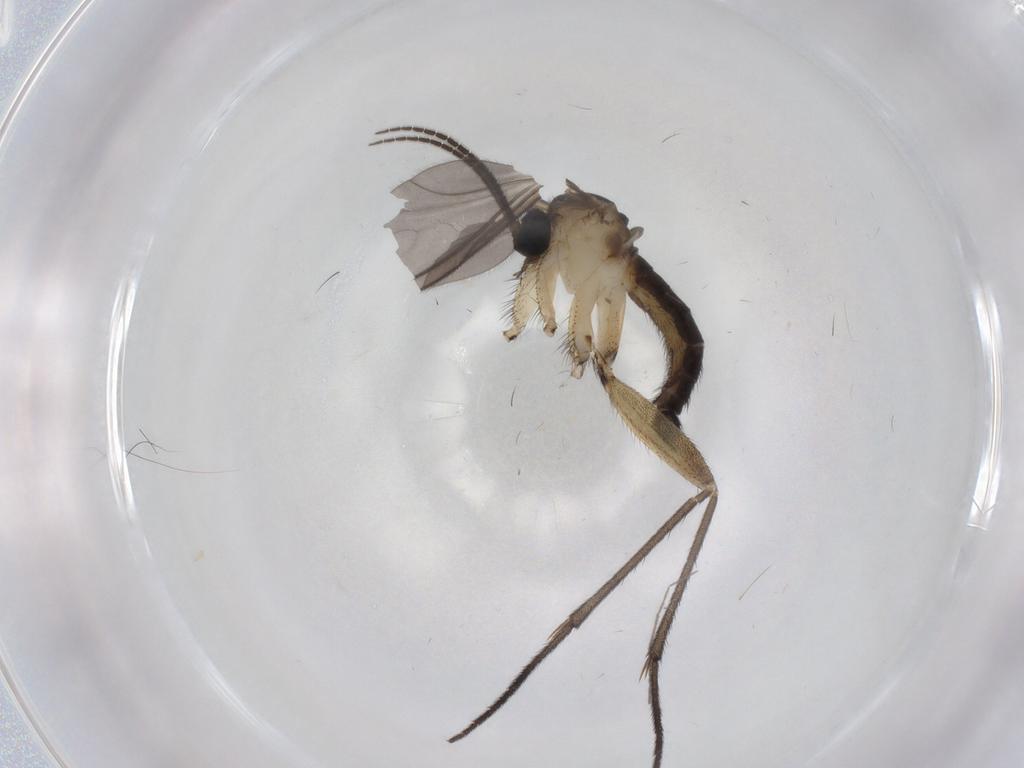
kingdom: Animalia
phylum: Arthropoda
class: Insecta
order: Diptera
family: Sciaridae
